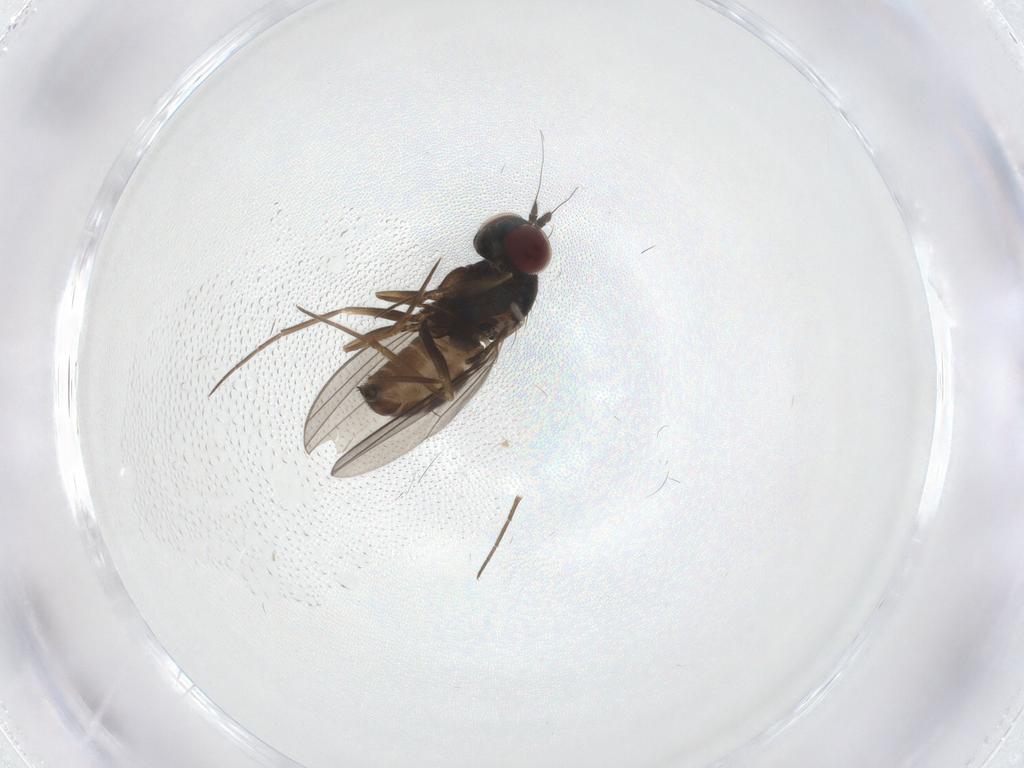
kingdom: Animalia
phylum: Arthropoda
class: Insecta
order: Diptera
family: Dolichopodidae
